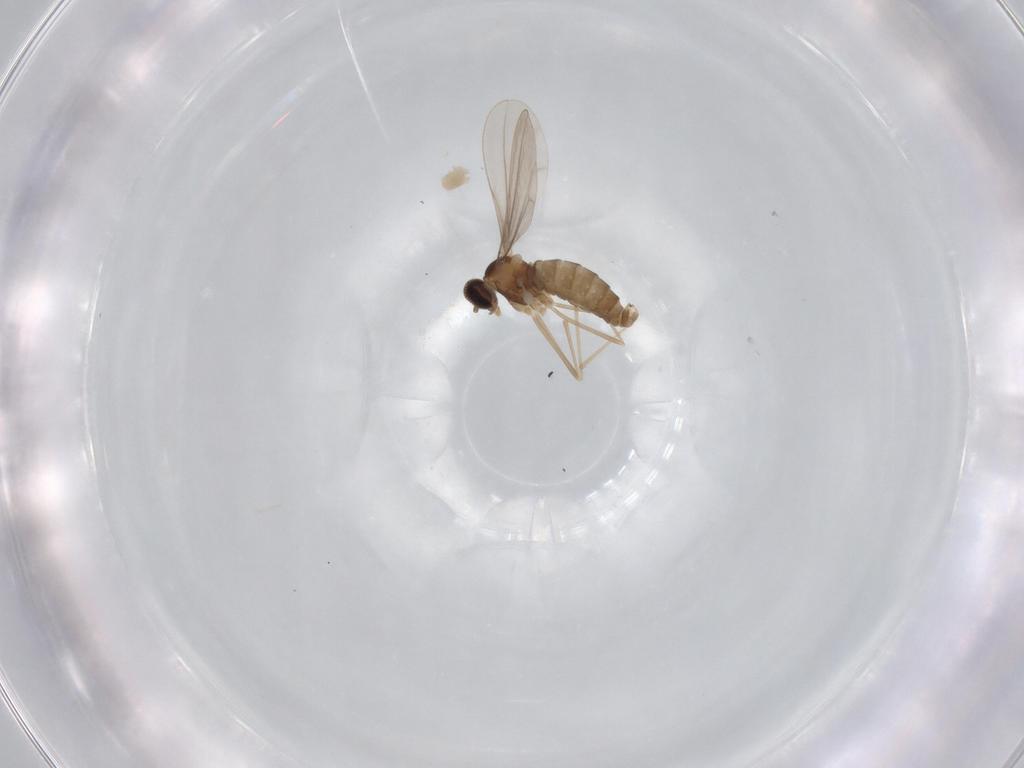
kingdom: Animalia
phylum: Arthropoda
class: Insecta
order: Diptera
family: Cecidomyiidae
